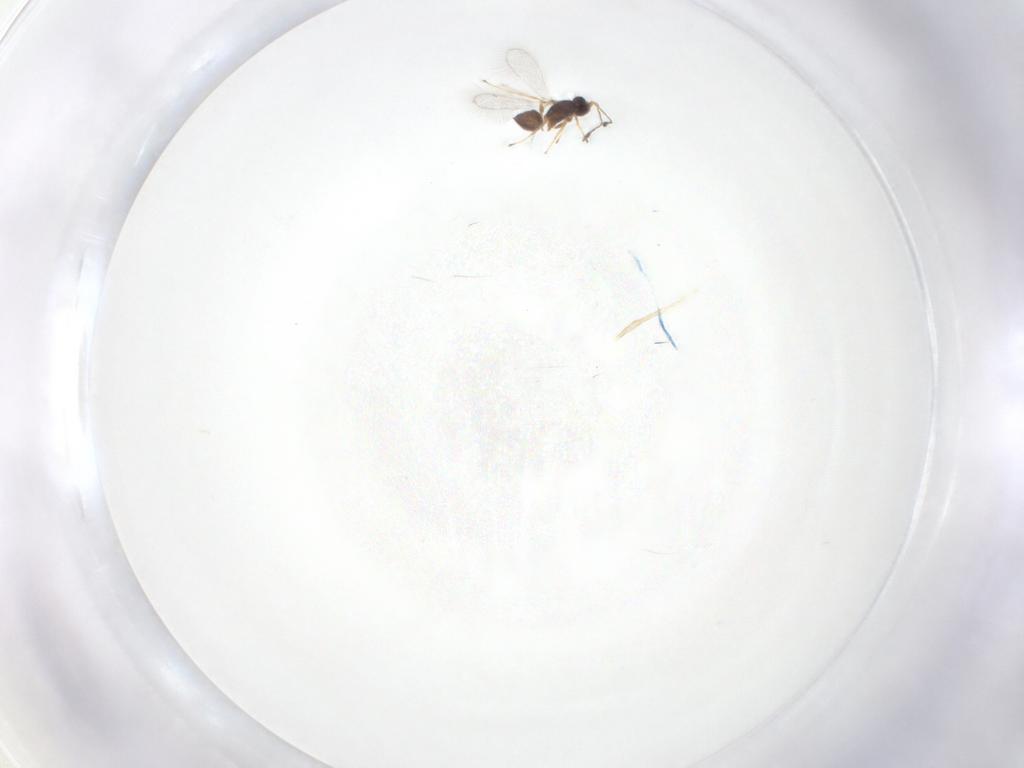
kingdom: Animalia
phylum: Arthropoda
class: Insecta
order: Hymenoptera
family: Mymaridae
